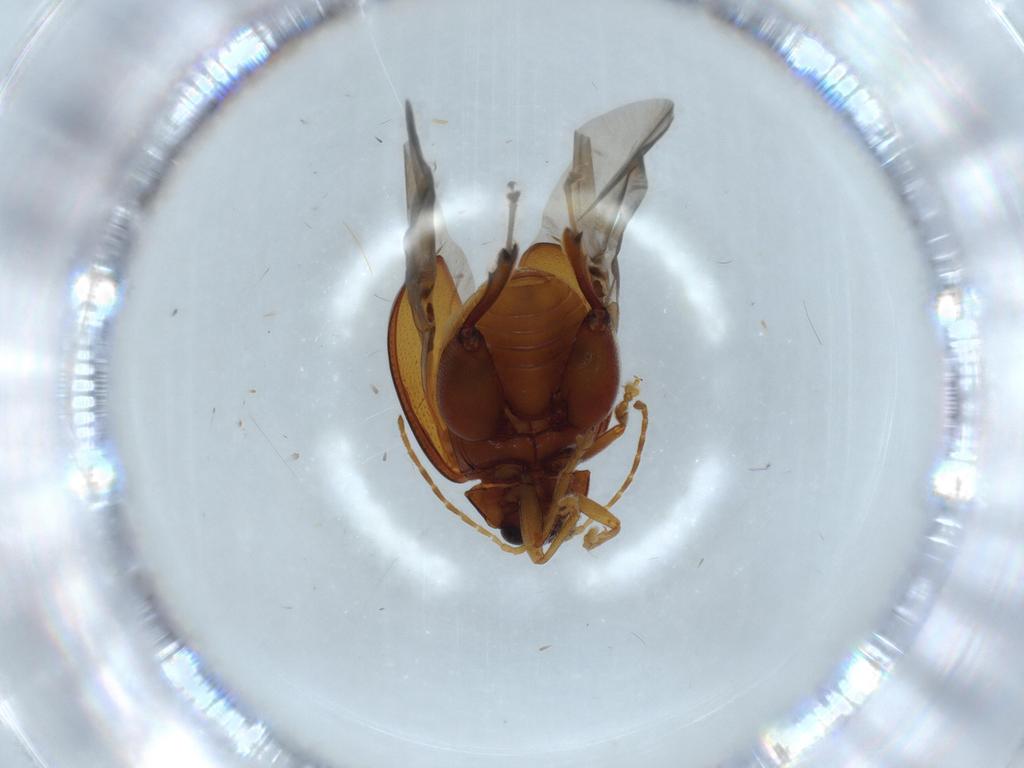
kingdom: Animalia
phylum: Arthropoda
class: Insecta
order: Coleoptera
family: Chrysomelidae
